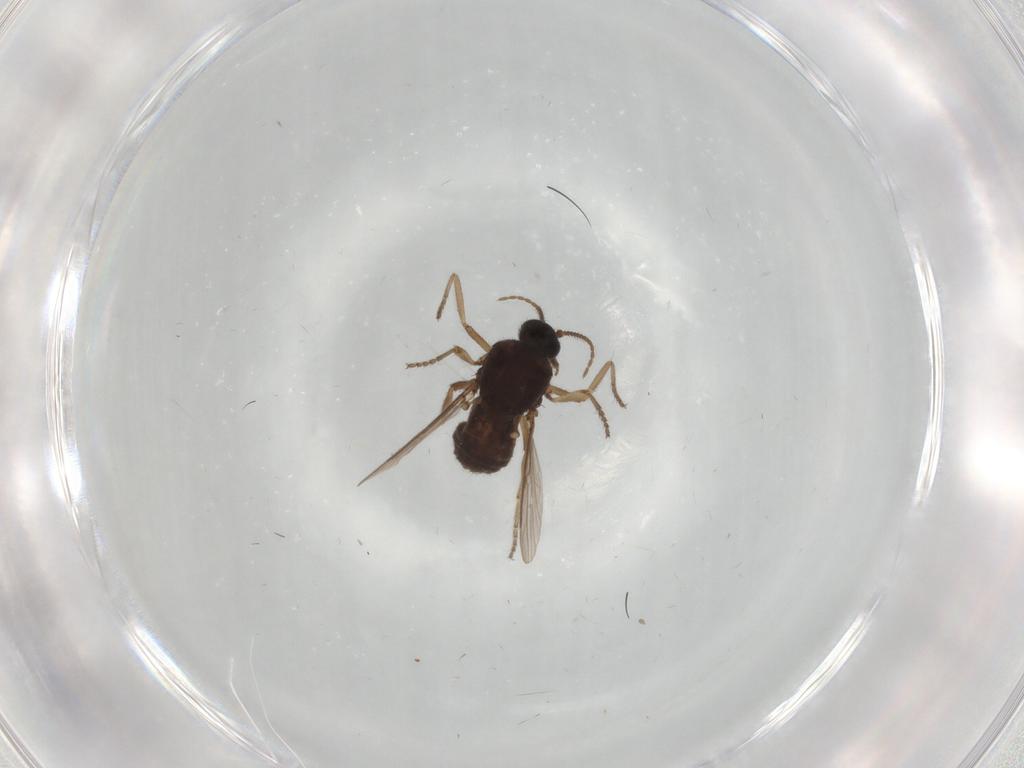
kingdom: Animalia
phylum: Arthropoda
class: Insecta
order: Diptera
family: Ceratopogonidae
